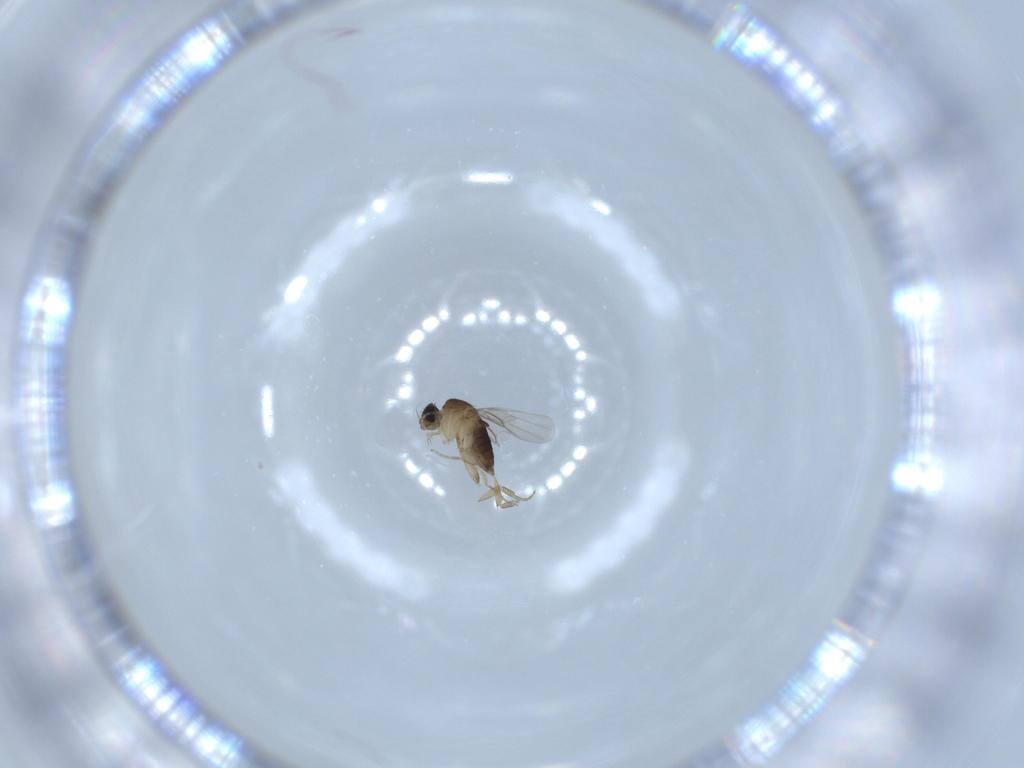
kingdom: Animalia
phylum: Arthropoda
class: Insecta
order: Diptera
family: Phoridae
